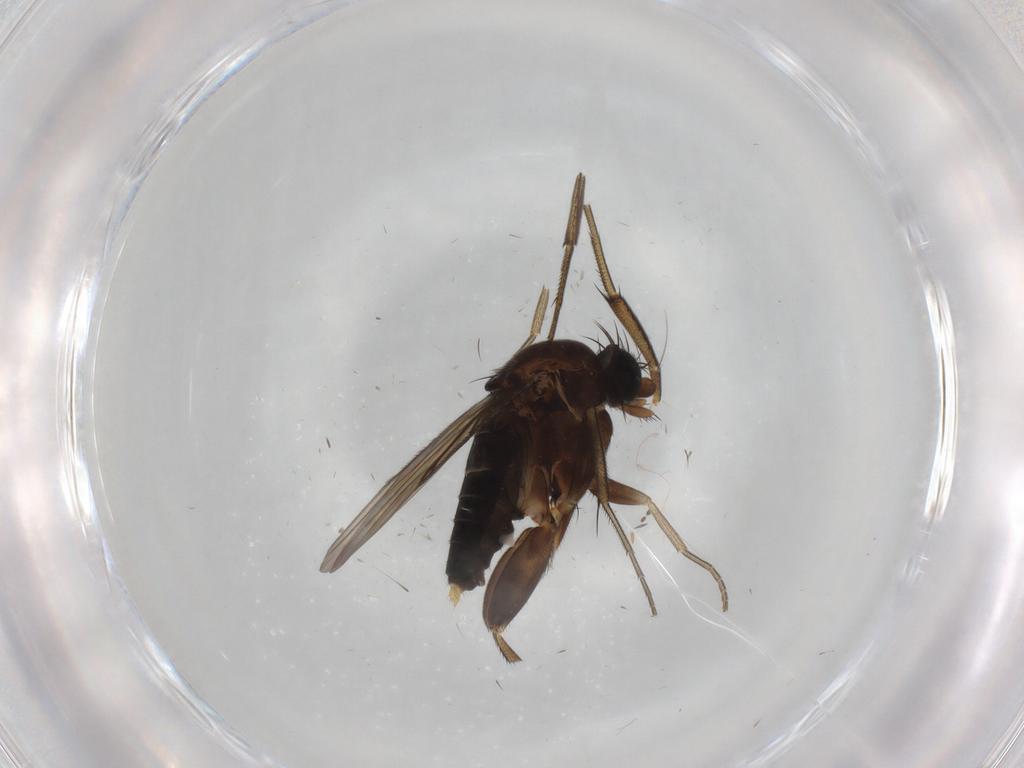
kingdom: Animalia
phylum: Arthropoda
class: Insecta
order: Diptera
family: Phoridae
